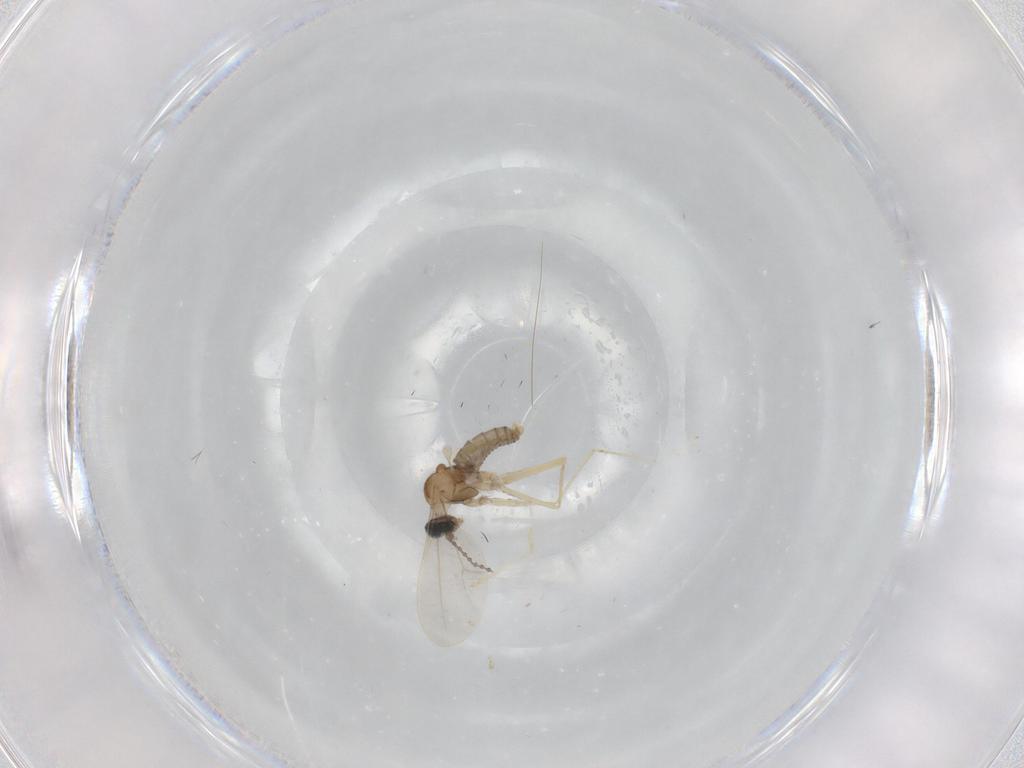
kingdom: Animalia
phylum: Arthropoda
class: Insecta
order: Diptera
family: Cecidomyiidae
